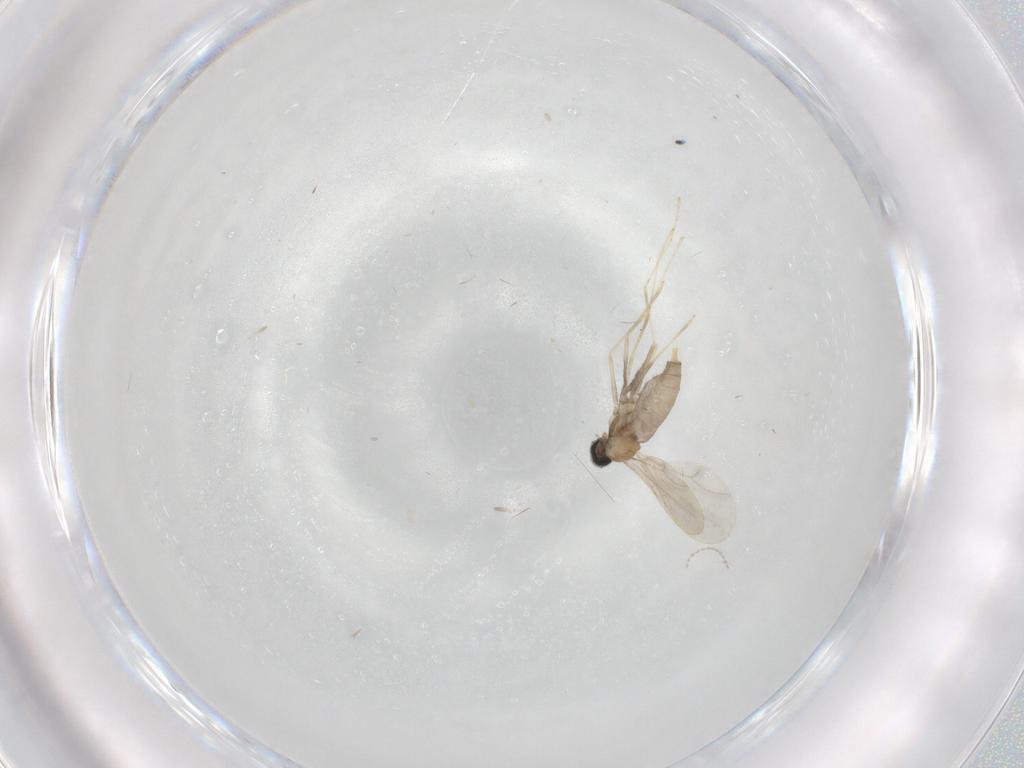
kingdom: Animalia
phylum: Arthropoda
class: Insecta
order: Diptera
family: Cecidomyiidae
